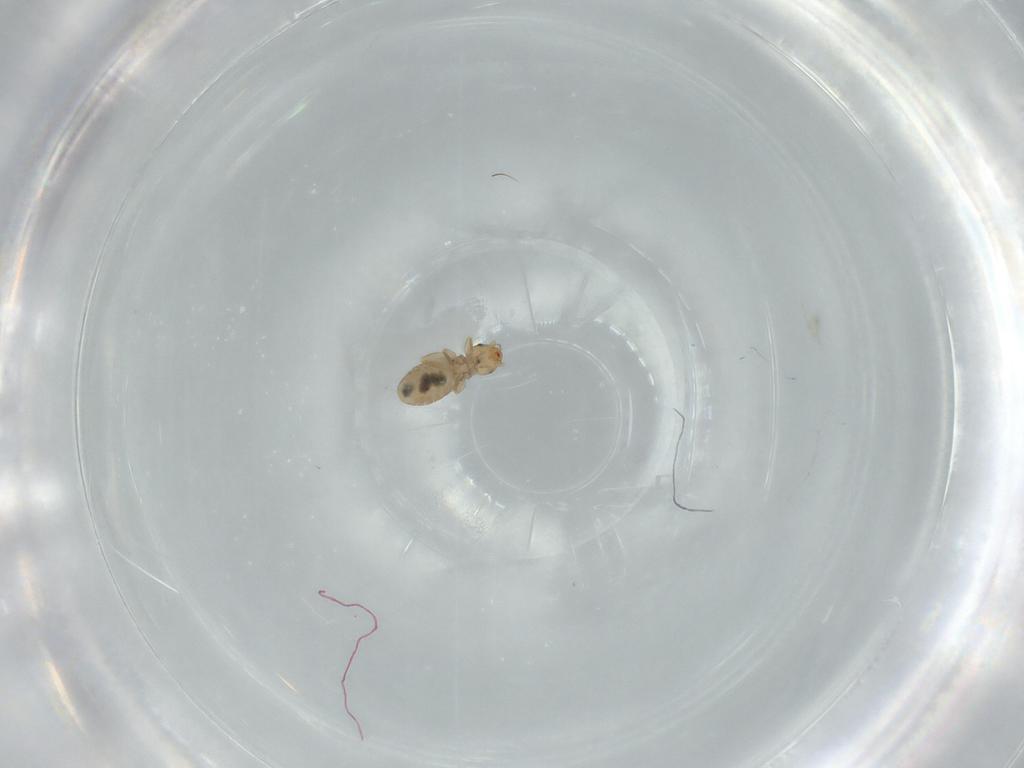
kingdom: Animalia
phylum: Arthropoda
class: Insecta
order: Psocodea
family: Liposcelididae
